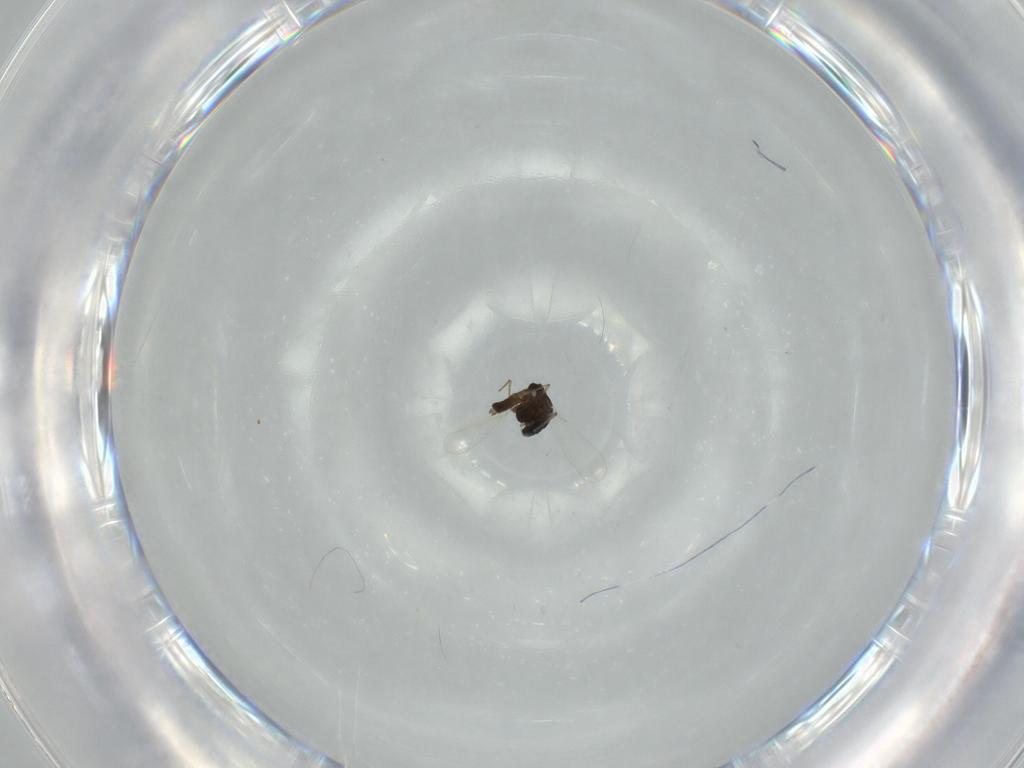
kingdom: Animalia
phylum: Arthropoda
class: Insecta
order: Diptera
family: Chironomidae
